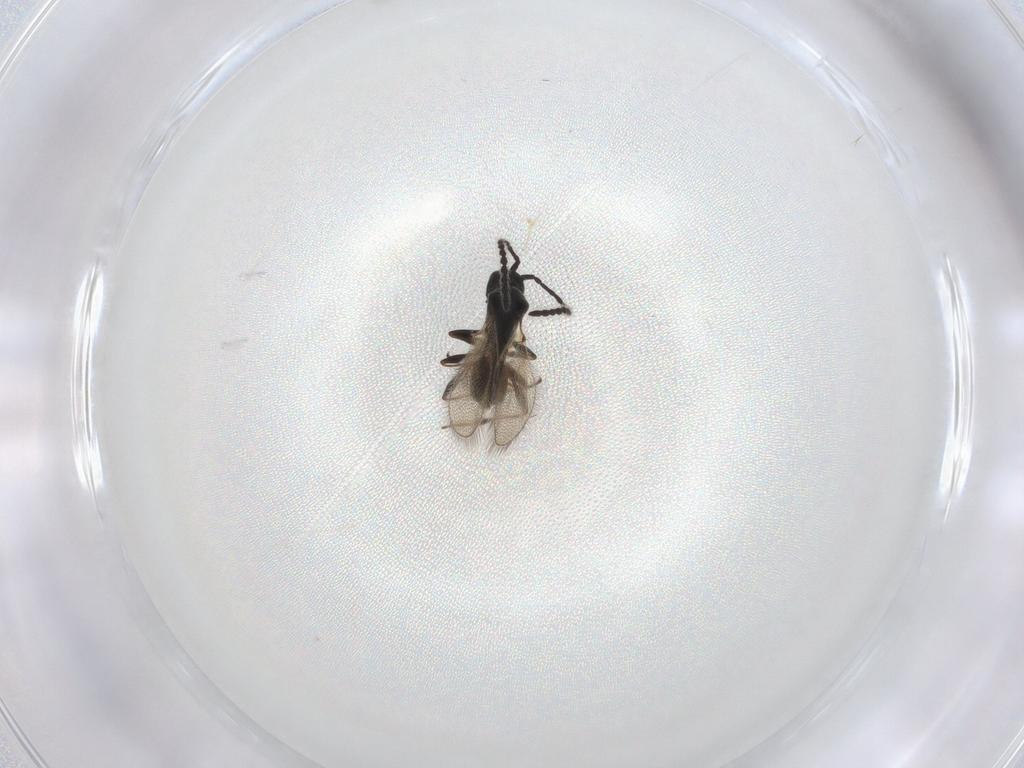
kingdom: Animalia
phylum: Arthropoda
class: Insecta
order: Hymenoptera
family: Diapriidae
